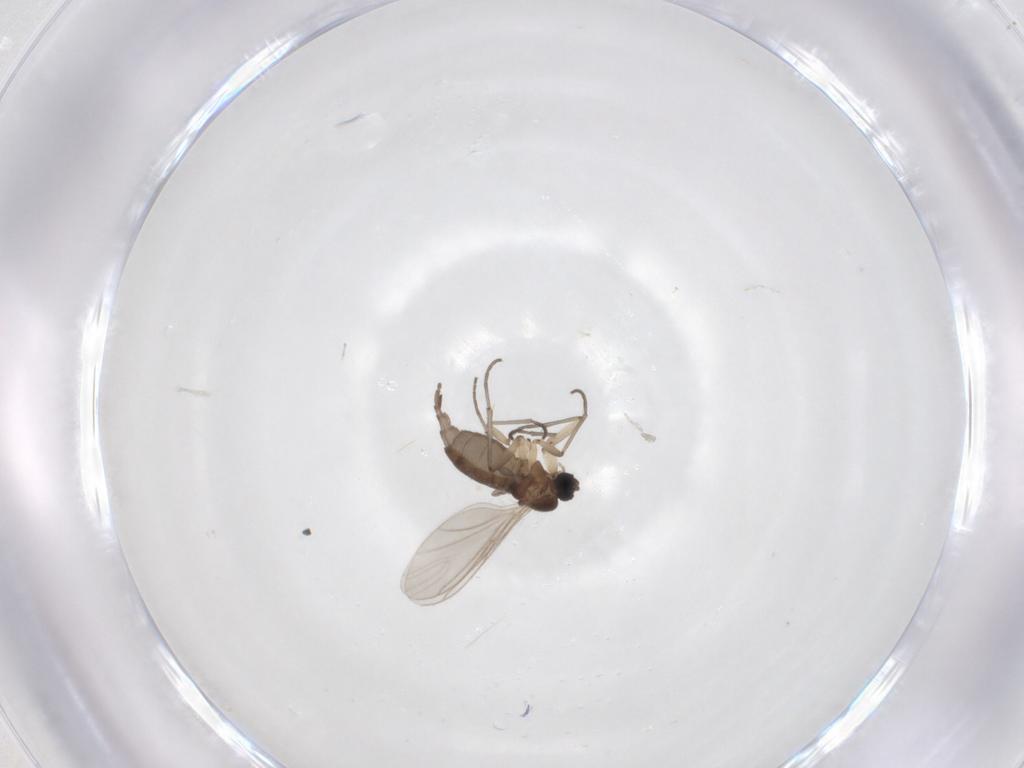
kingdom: Animalia
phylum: Arthropoda
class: Insecta
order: Diptera
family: Sciaridae
